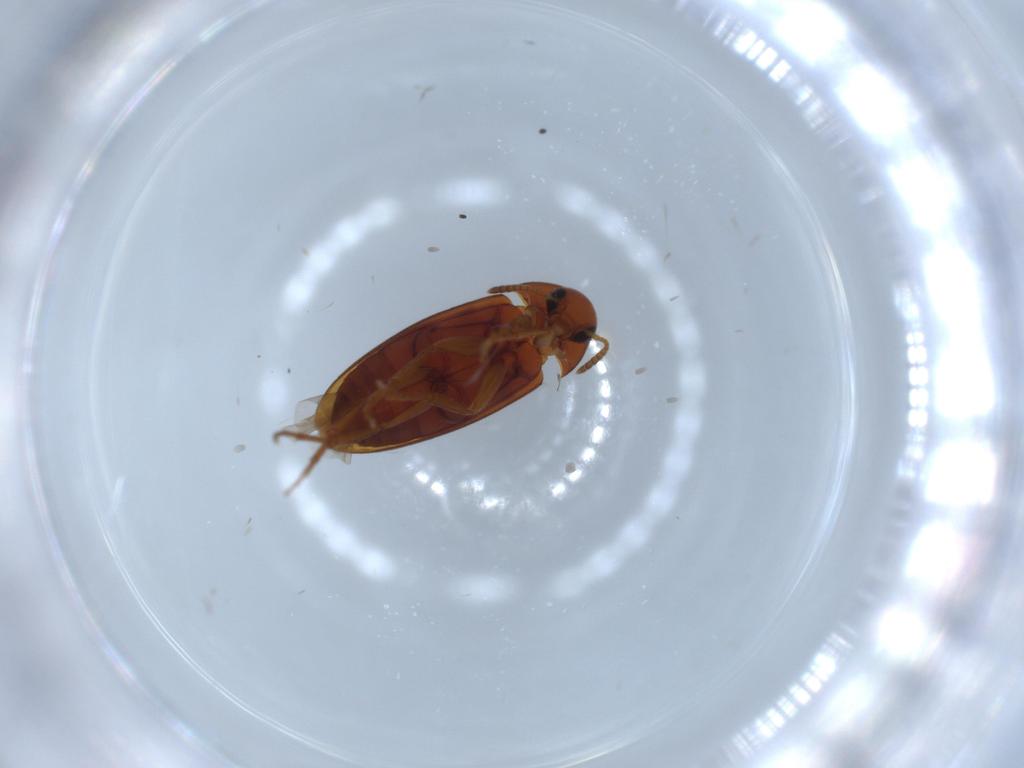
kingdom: Animalia
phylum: Arthropoda
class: Insecta
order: Coleoptera
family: Scraptiidae
